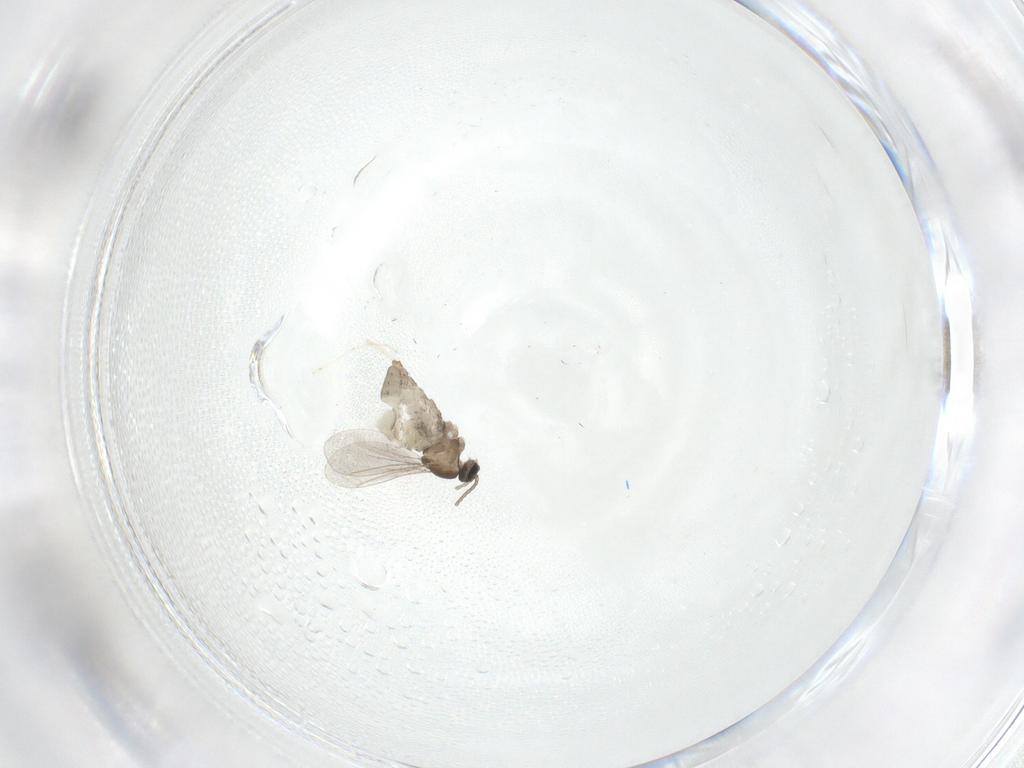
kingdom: Animalia
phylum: Arthropoda
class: Insecta
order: Diptera
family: Cecidomyiidae
